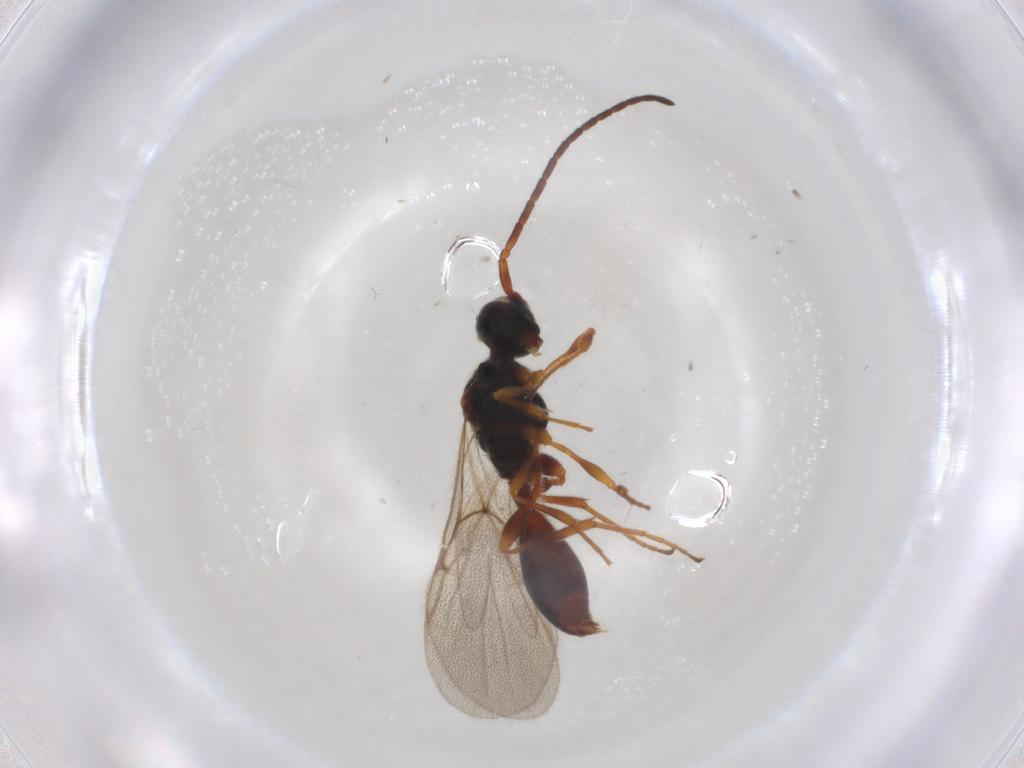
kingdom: Animalia
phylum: Arthropoda
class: Insecta
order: Hymenoptera
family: Diapriidae
